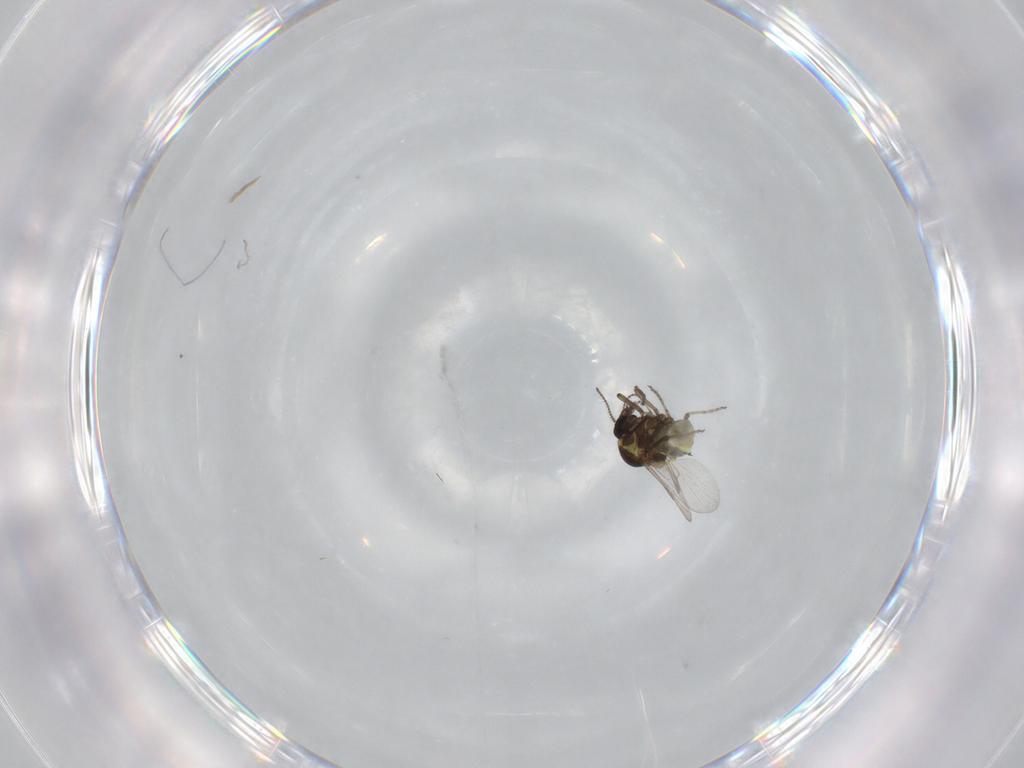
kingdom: Animalia
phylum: Arthropoda
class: Insecta
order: Diptera
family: Ceratopogonidae
